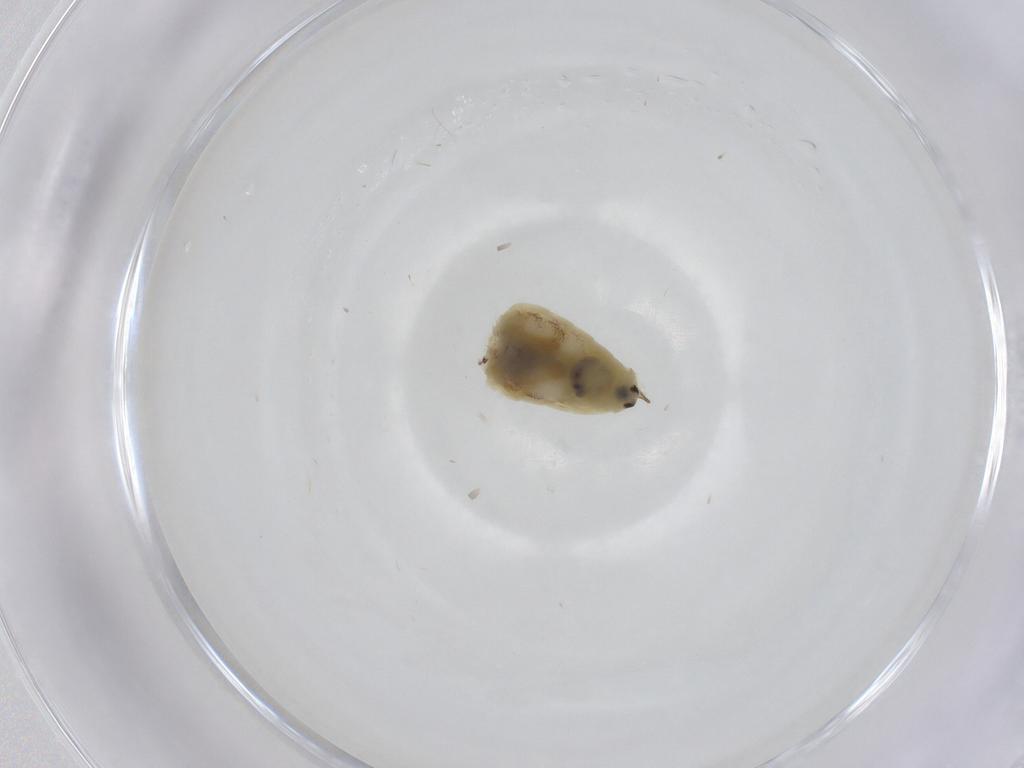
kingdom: Animalia
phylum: Arthropoda
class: Insecta
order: Psocodea
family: Lepidopsocidae
